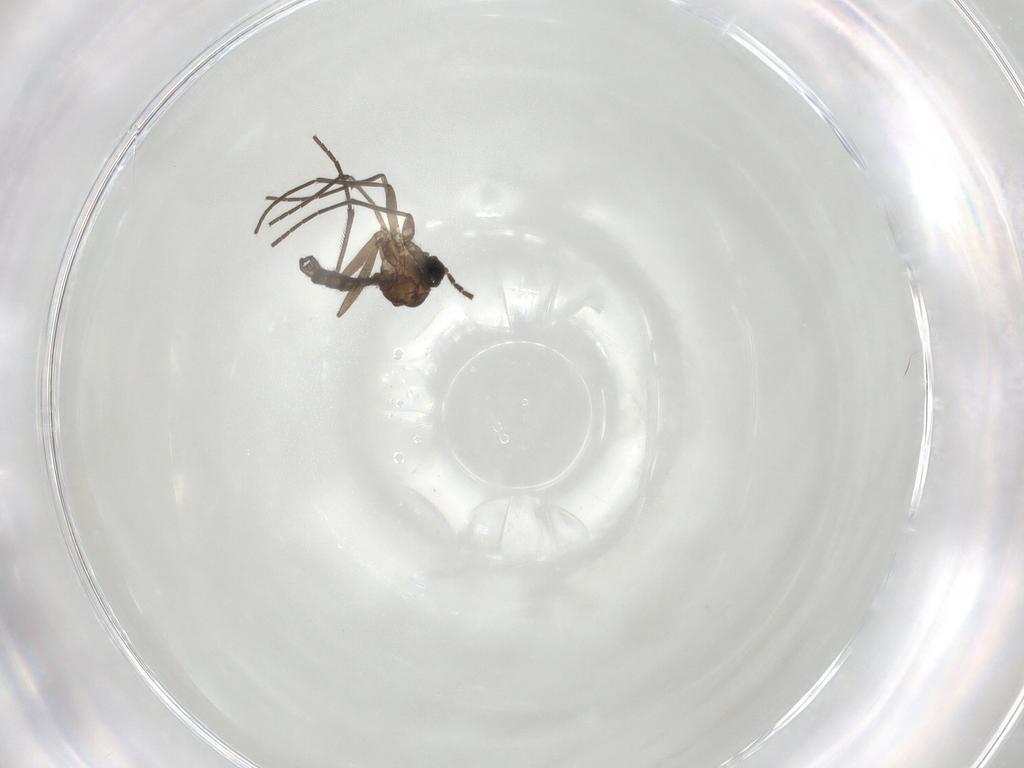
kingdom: Animalia
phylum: Arthropoda
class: Insecta
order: Diptera
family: Sciaridae
